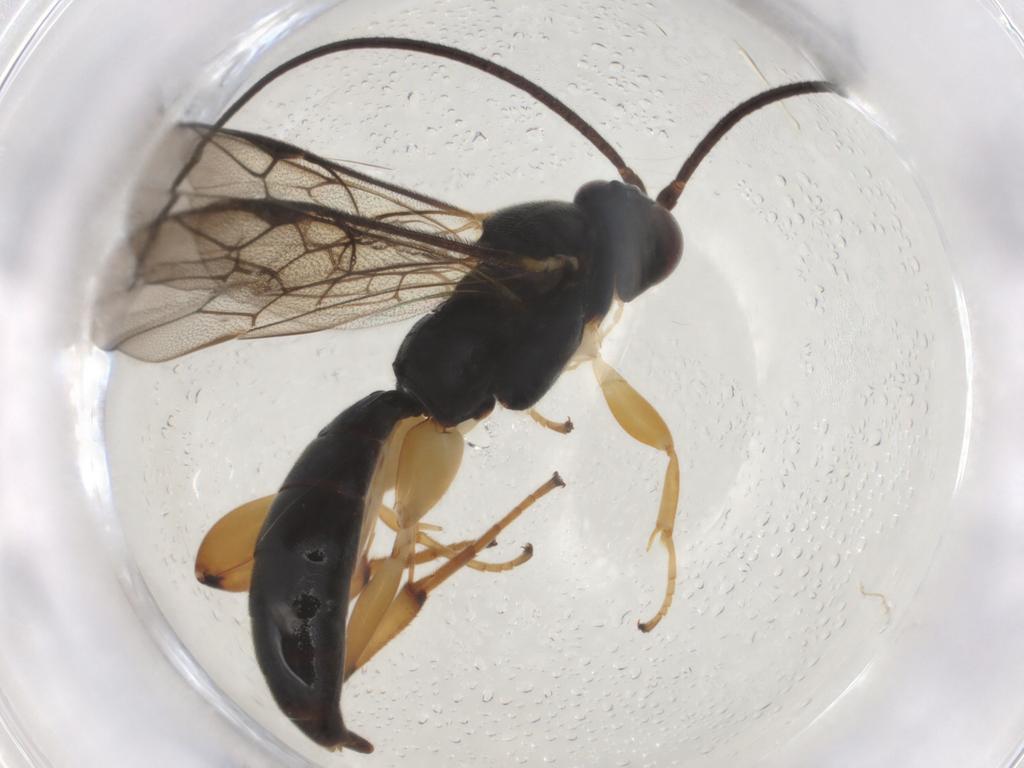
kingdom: Animalia
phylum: Arthropoda
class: Insecta
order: Hymenoptera
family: Ichneumonidae
